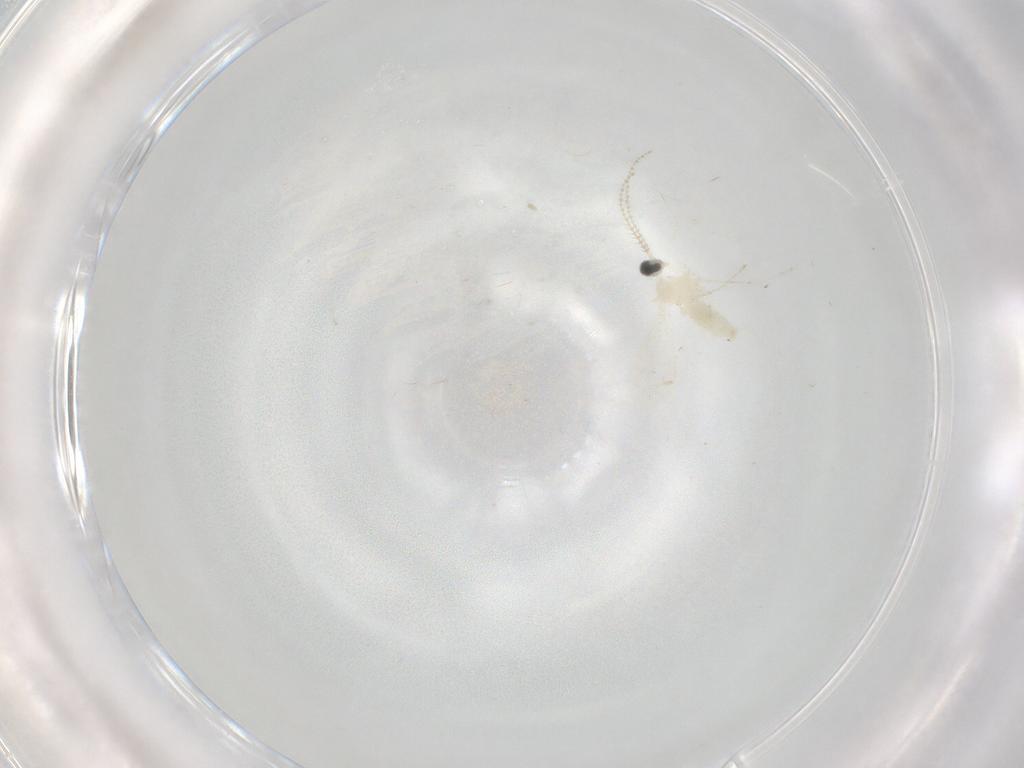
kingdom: Animalia
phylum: Arthropoda
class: Insecta
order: Diptera
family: Cecidomyiidae
